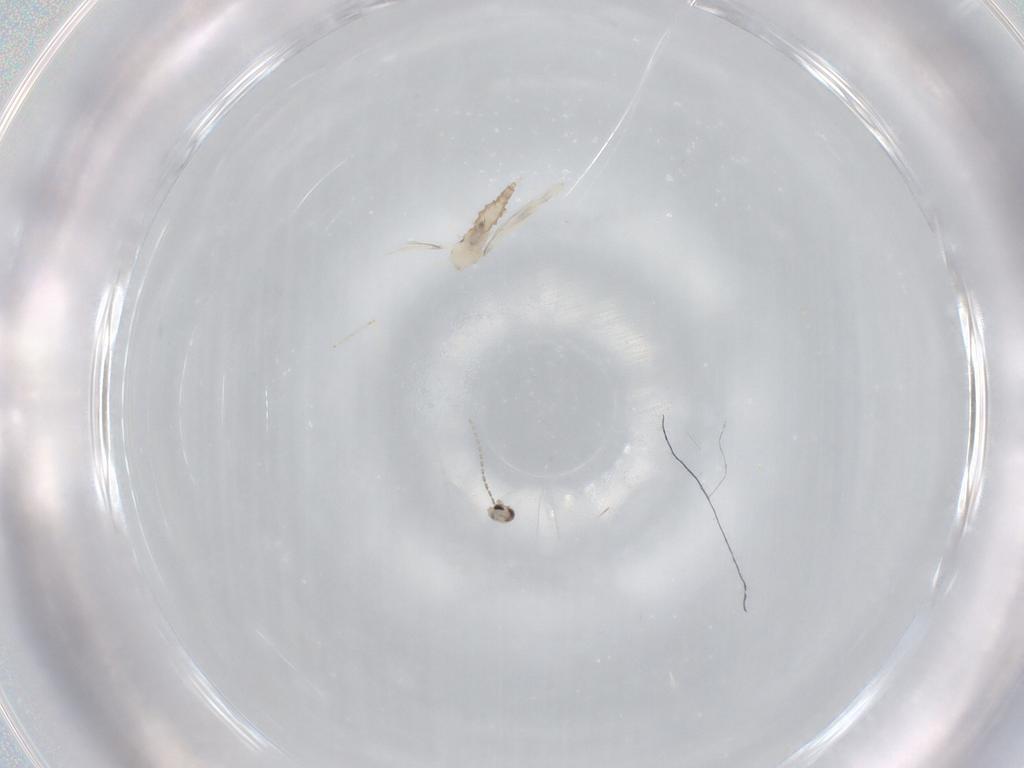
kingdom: Animalia
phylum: Arthropoda
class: Insecta
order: Diptera
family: Cecidomyiidae
